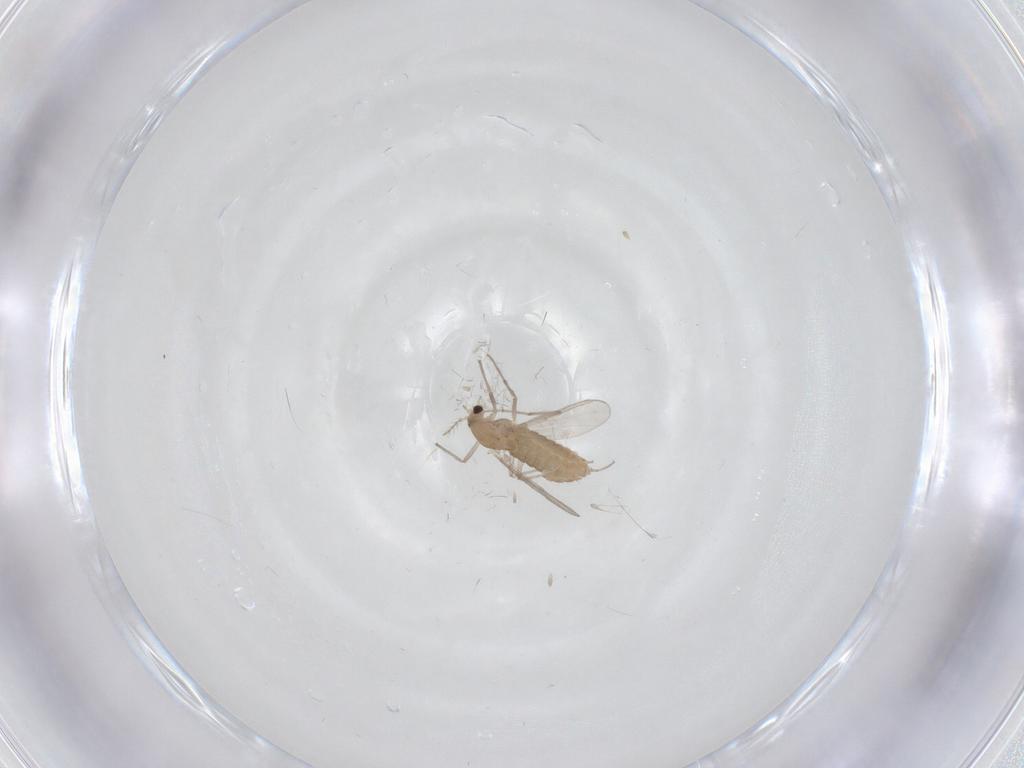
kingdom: Animalia
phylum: Arthropoda
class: Insecta
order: Diptera
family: Chironomidae
